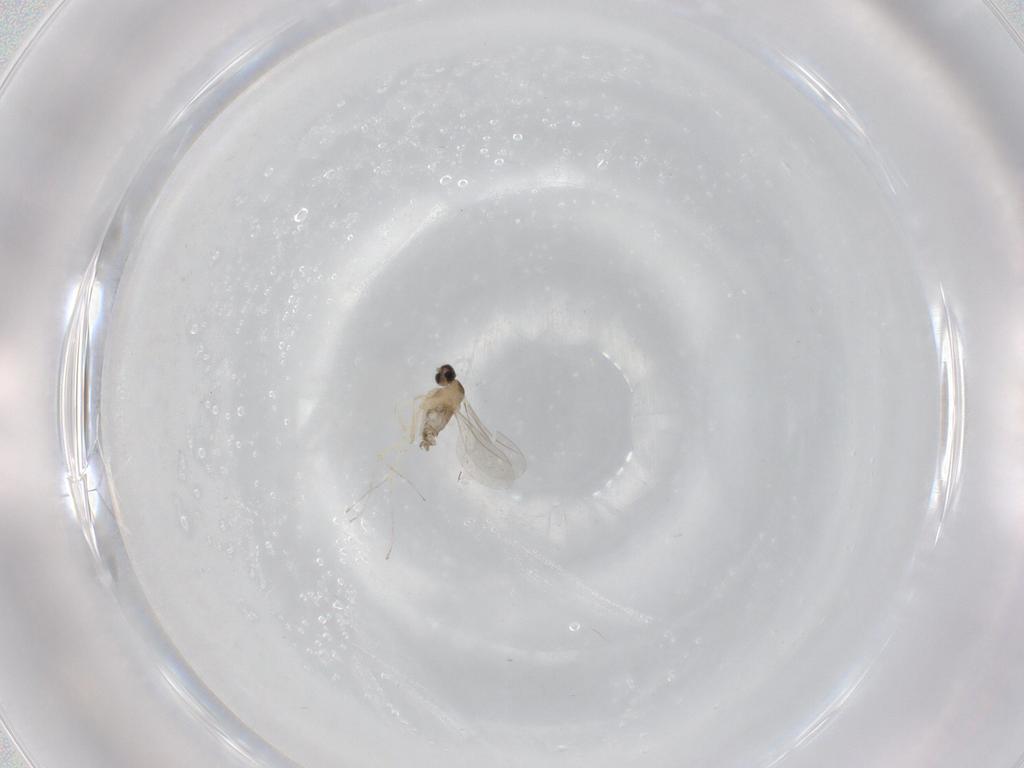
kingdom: Animalia
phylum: Arthropoda
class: Insecta
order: Diptera
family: Cecidomyiidae
